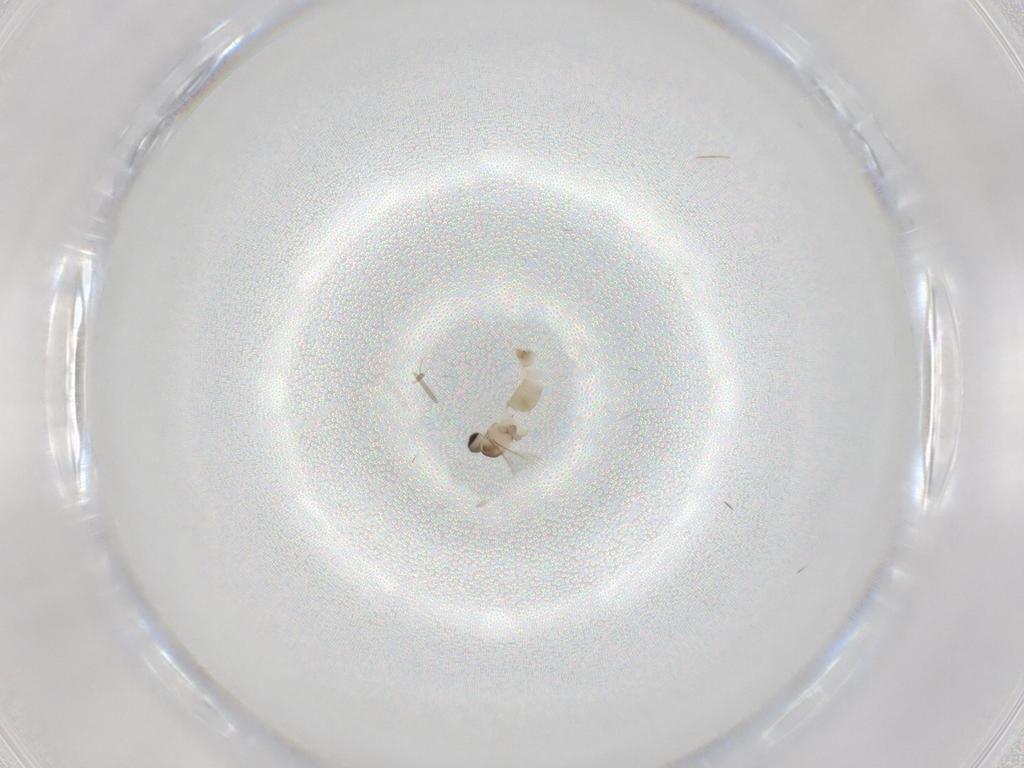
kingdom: Animalia
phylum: Arthropoda
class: Insecta
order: Diptera
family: Cecidomyiidae
